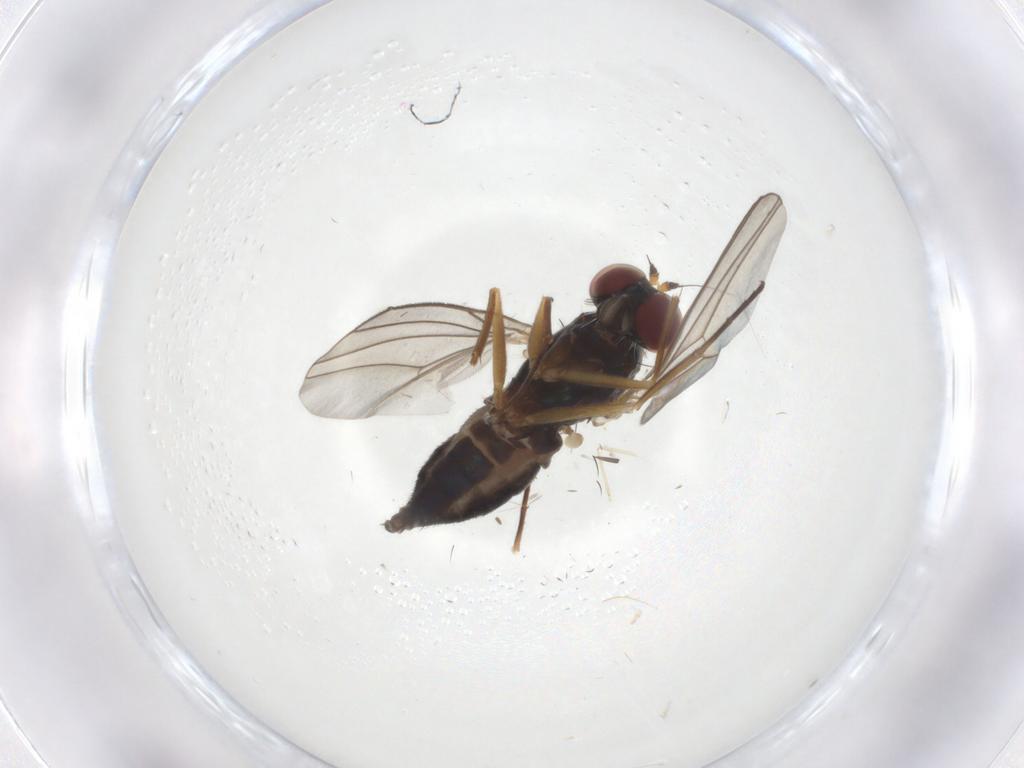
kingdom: Animalia
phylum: Arthropoda
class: Insecta
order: Diptera
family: Dolichopodidae
